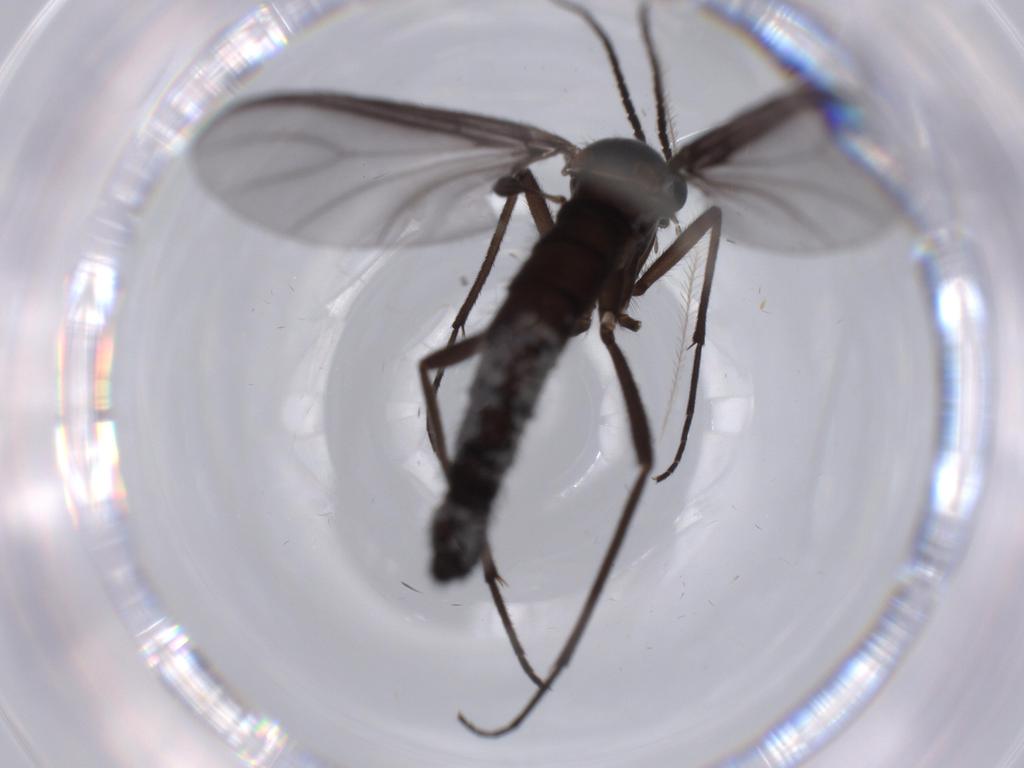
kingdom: Animalia
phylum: Arthropoda
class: Insecta
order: Diptera
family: Psychodidae
